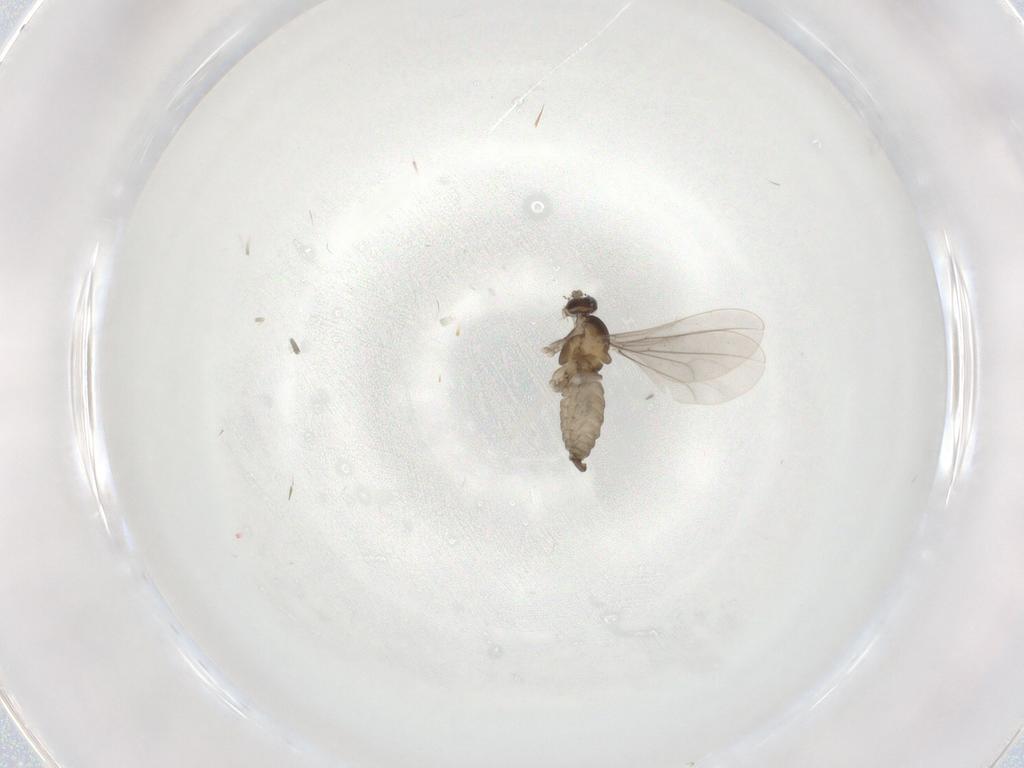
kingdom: Animalia
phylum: Arthropoda
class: Insecta
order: Diptera
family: Cecidomyiidae
